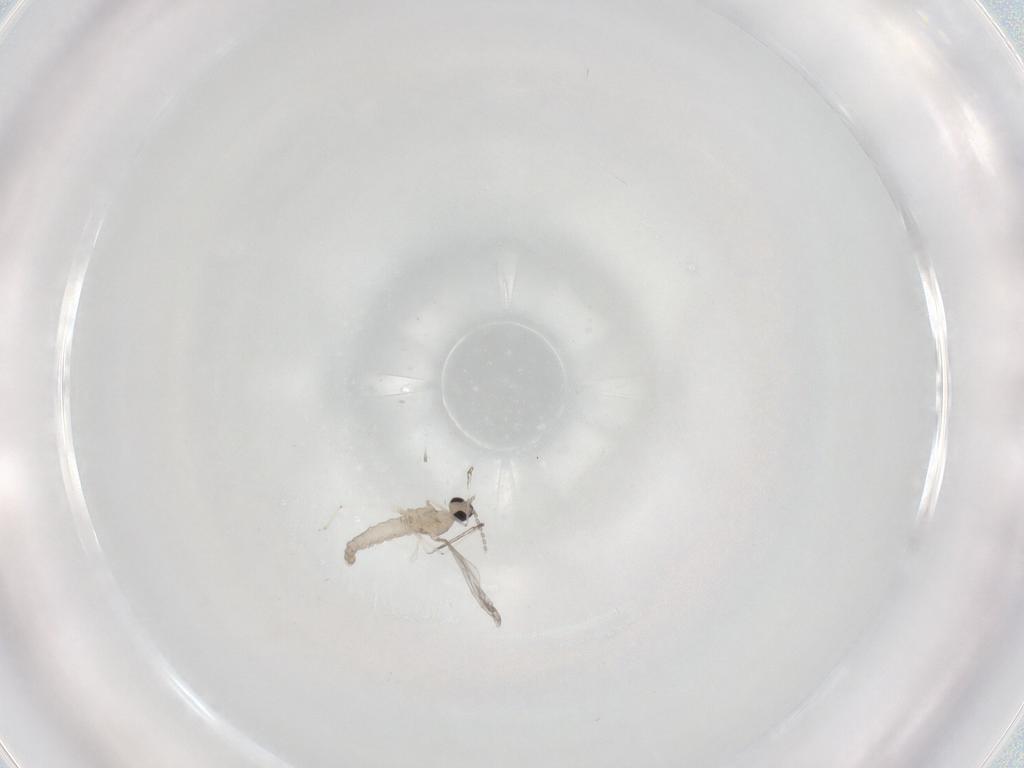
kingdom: Animalia
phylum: Arthropoda
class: Insecta
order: Diptera
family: Cecidomyiidae
